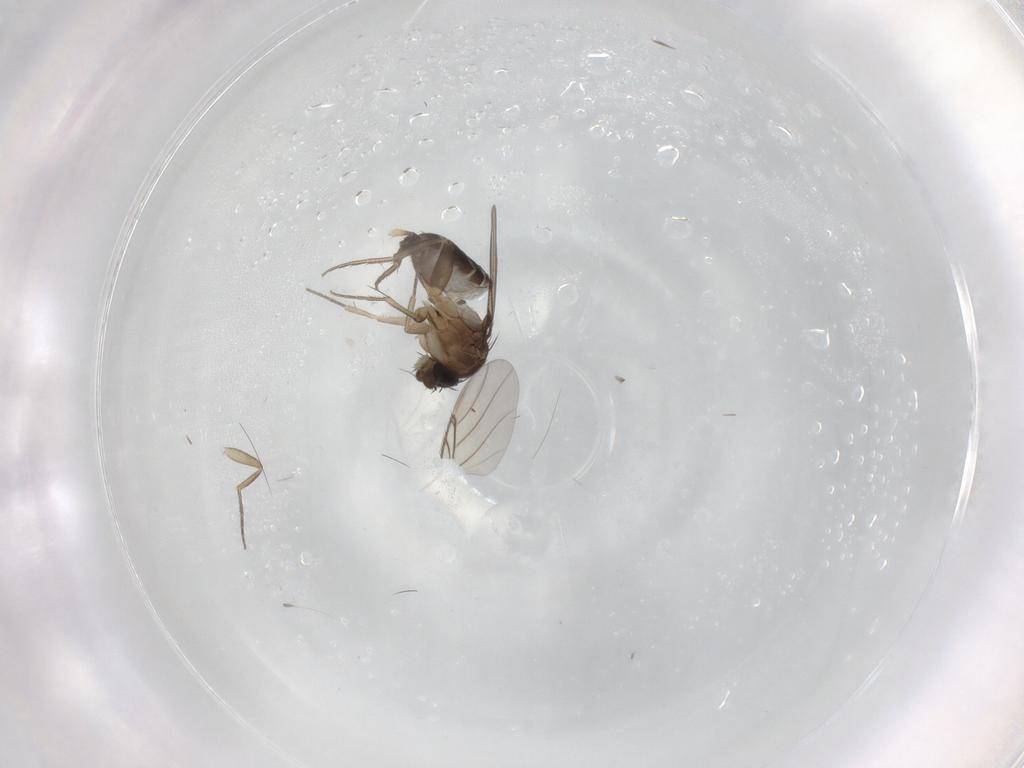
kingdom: Animalia
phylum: Arthropoda
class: Insecta
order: Diptera
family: Phoridae
